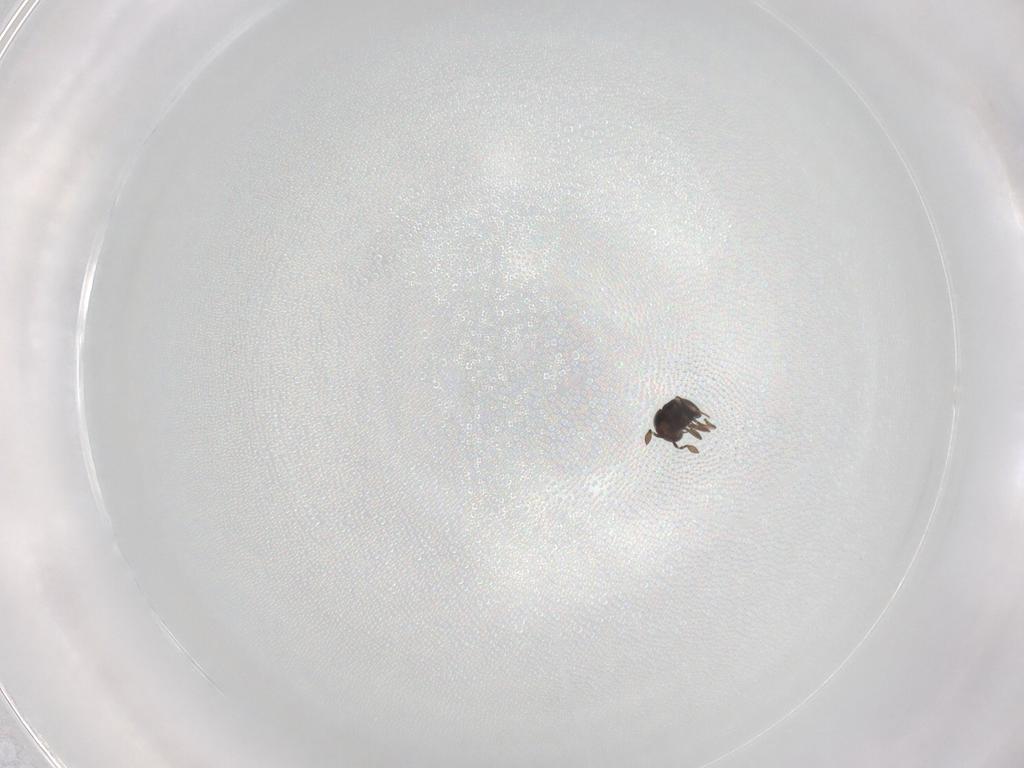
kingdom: Animalia
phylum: Arthropoda
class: Insecta
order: Hymenoptera
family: Scelionidae
